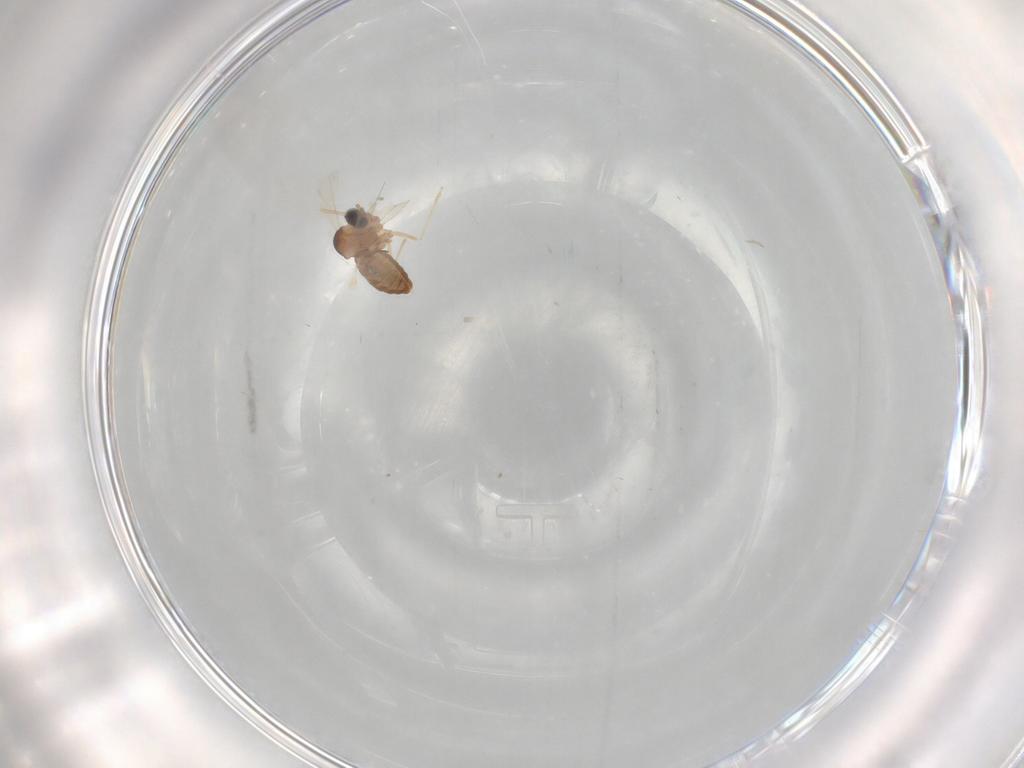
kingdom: Animalia
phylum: Arthropoda
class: Insecta
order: Diptera
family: Cecidomyiidae
